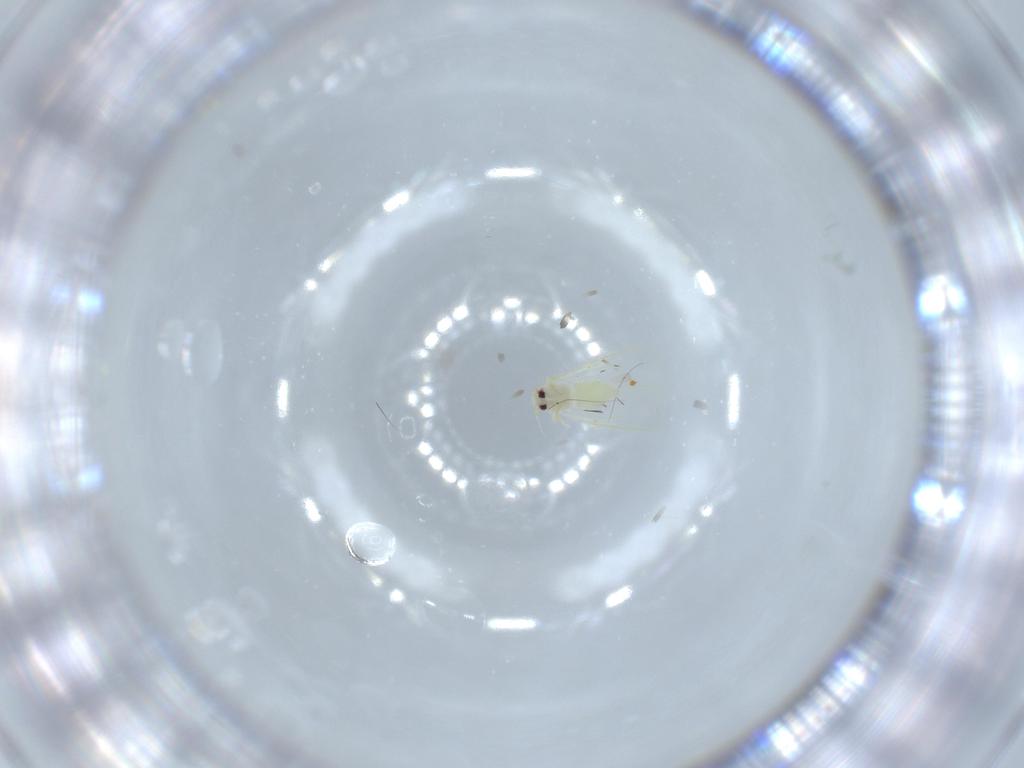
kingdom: Animalia
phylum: Arthropoda
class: Insecta
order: Hemiptera
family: Aleyrodidae
